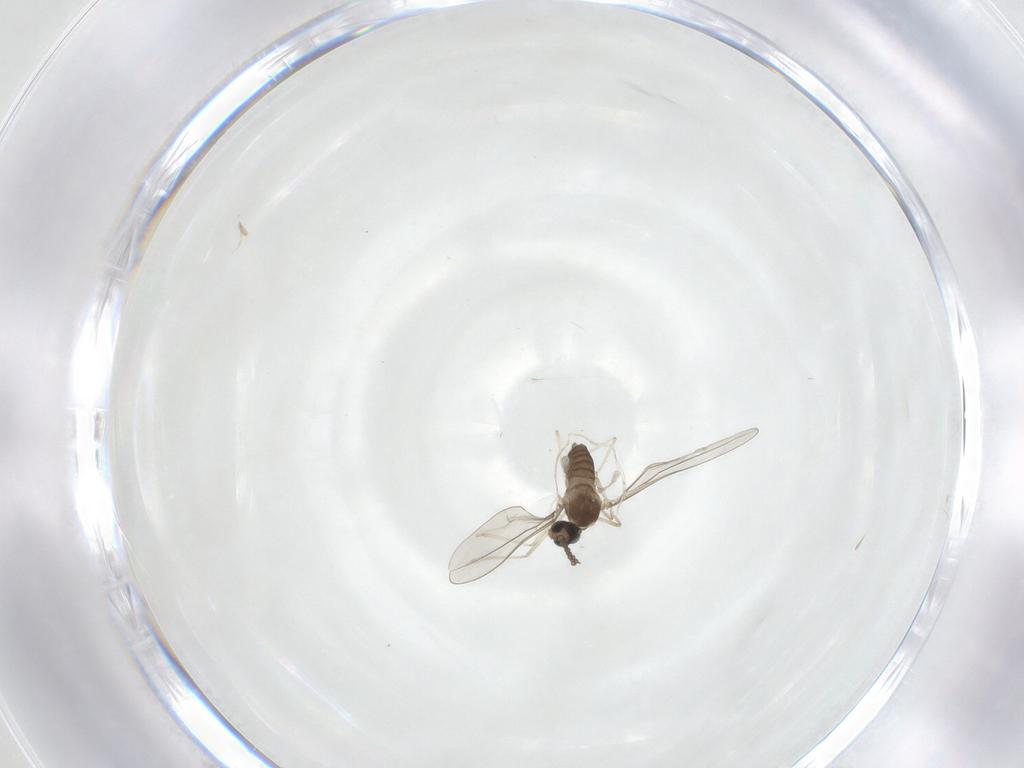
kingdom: Animalia
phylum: Arthropoda
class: Insecta
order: Diptera
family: Cecidomyiidae
